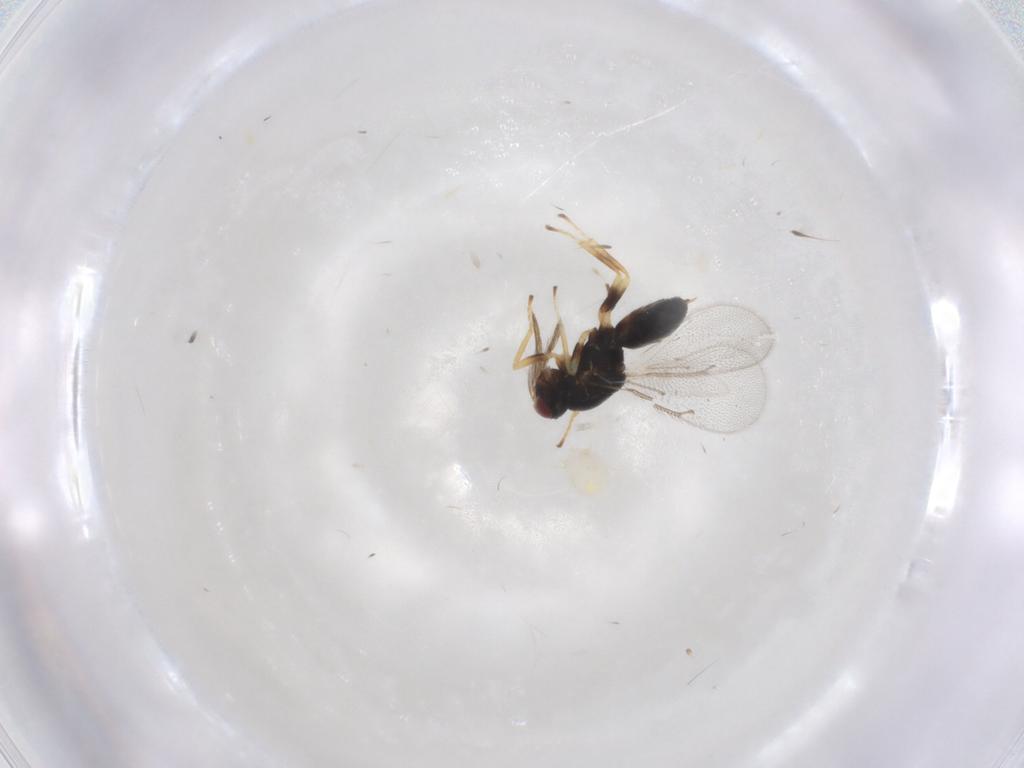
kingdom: Animalia
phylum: Arthropoda
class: Insecta
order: Hymenoptera
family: Eulophidae
